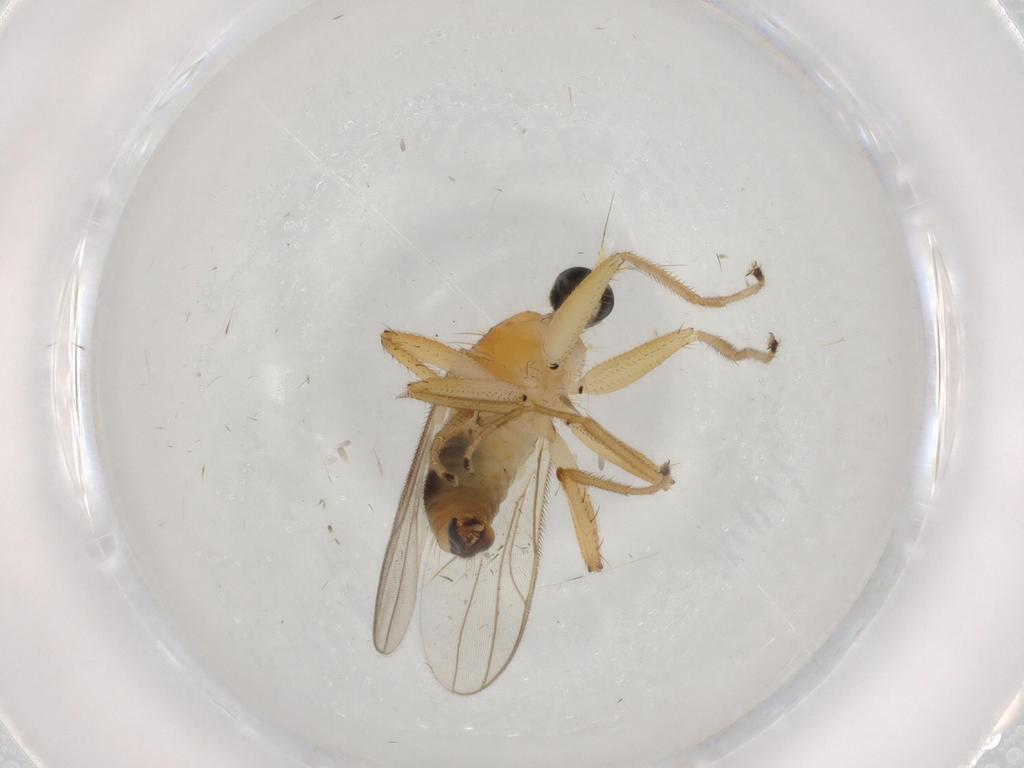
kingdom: Animalia
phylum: Arthropoda
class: Insecta
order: Diptera
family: Hybotidae
